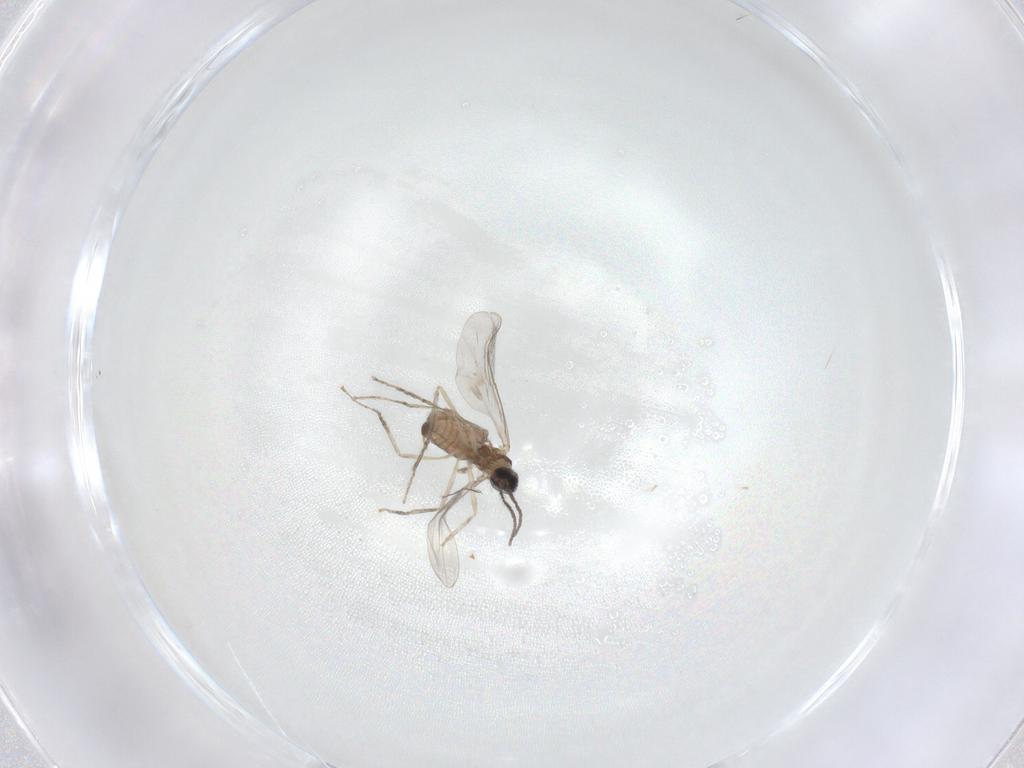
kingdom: Animalia
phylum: Arthropoda
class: Insecta
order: Diptera
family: Cecidomyiidae
